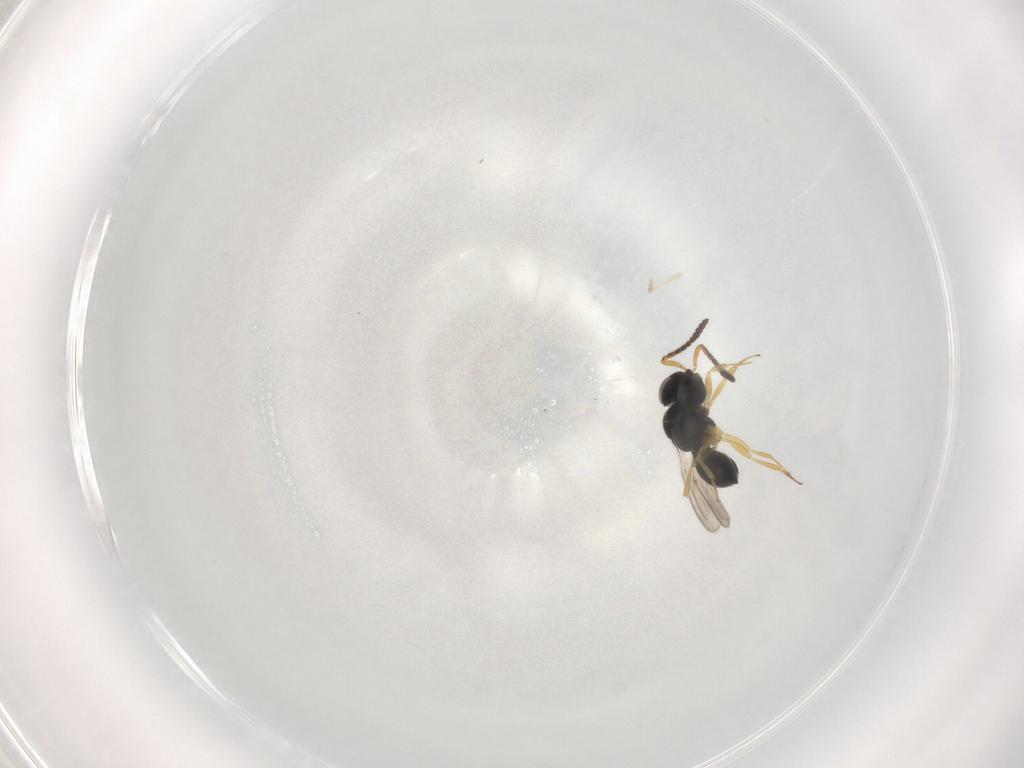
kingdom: Animalia
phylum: Arthropoda
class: Insecta
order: Hymenoptera
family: Scelionidae
